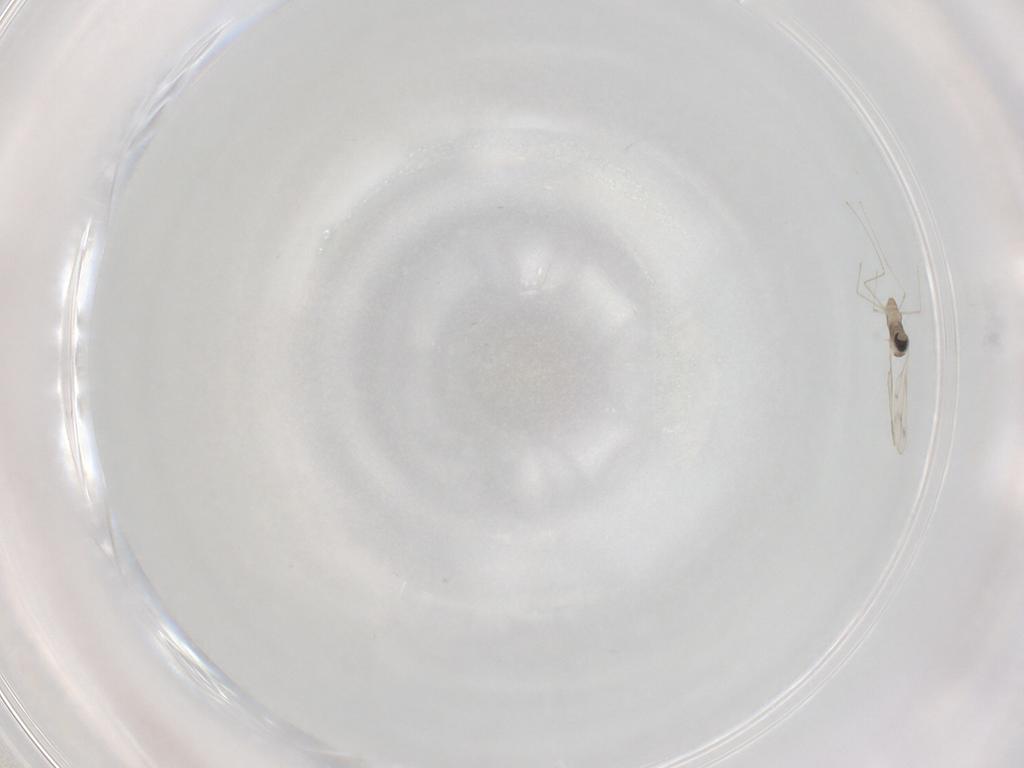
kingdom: Animalia
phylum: Arthropoda
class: Insecta
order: Diptera
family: Cecidomyiidae
